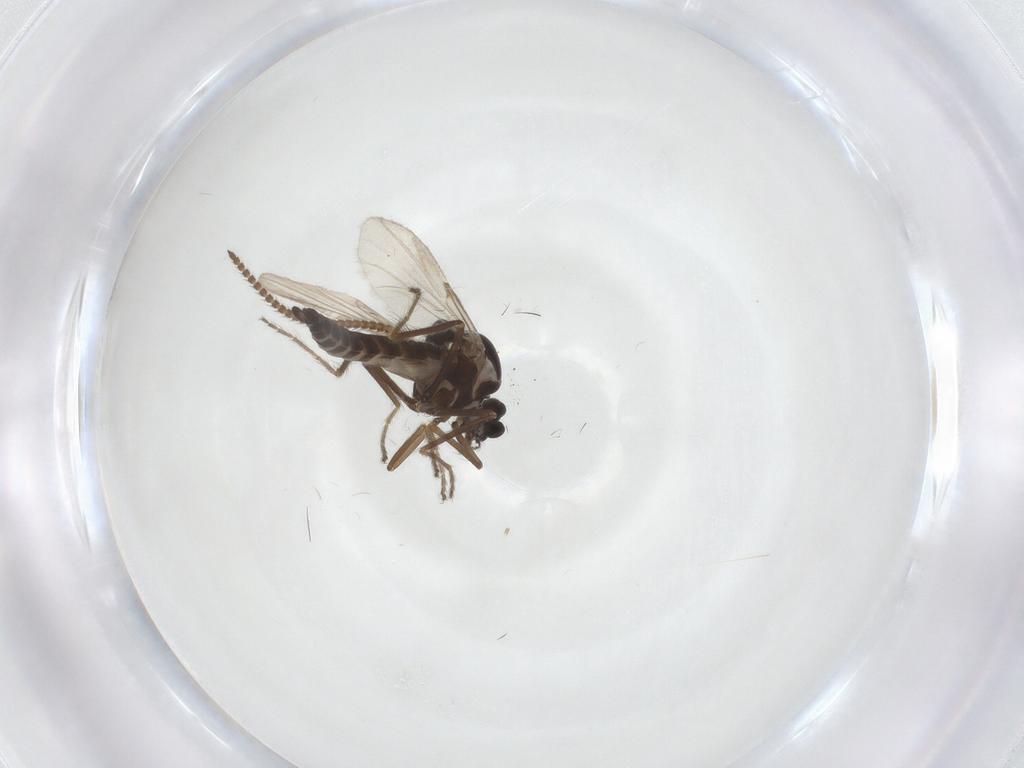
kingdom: Animalia
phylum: Arthropoda
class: Insecta
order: Diptera
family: Ceratopogonidae
